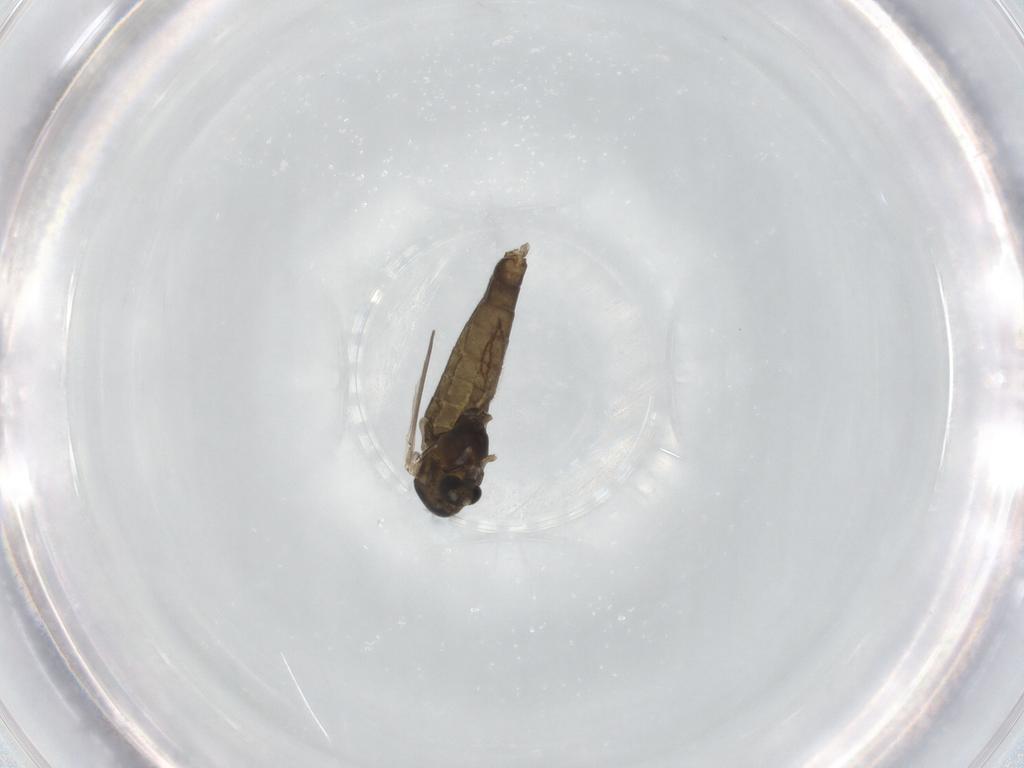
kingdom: Animalia
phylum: Arthropoda
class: Insecta
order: Diptera
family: Chironomidae
